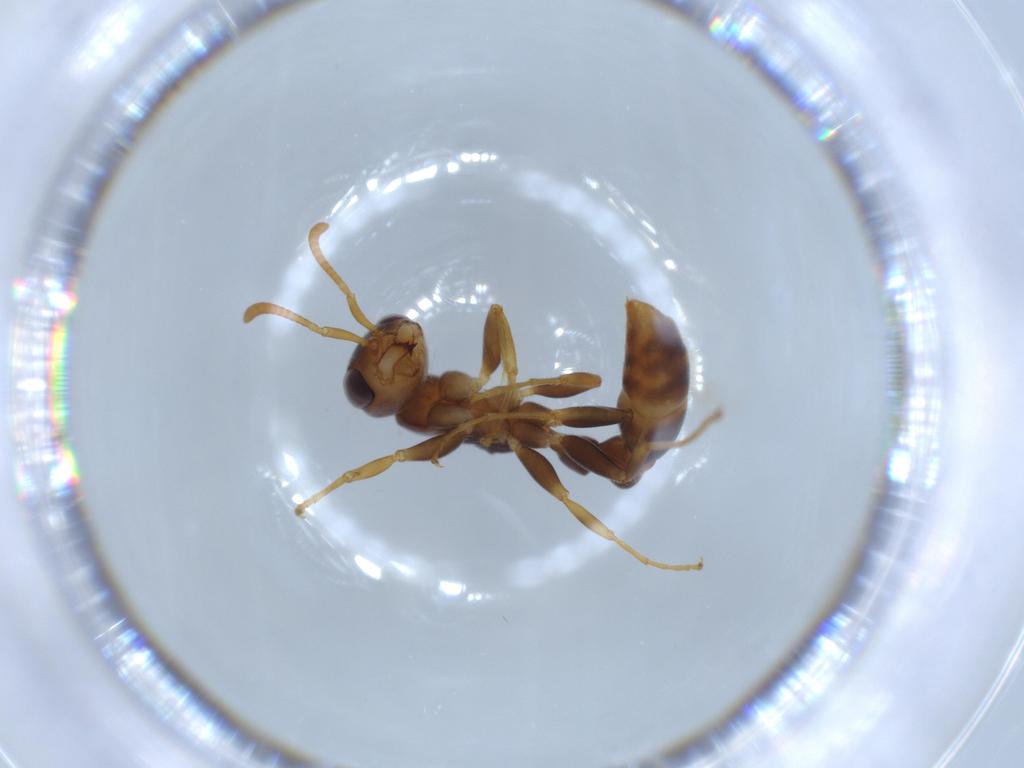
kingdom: Animalia
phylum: Arthropoda
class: Insecta
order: Hymenoptera
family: Formicidae
